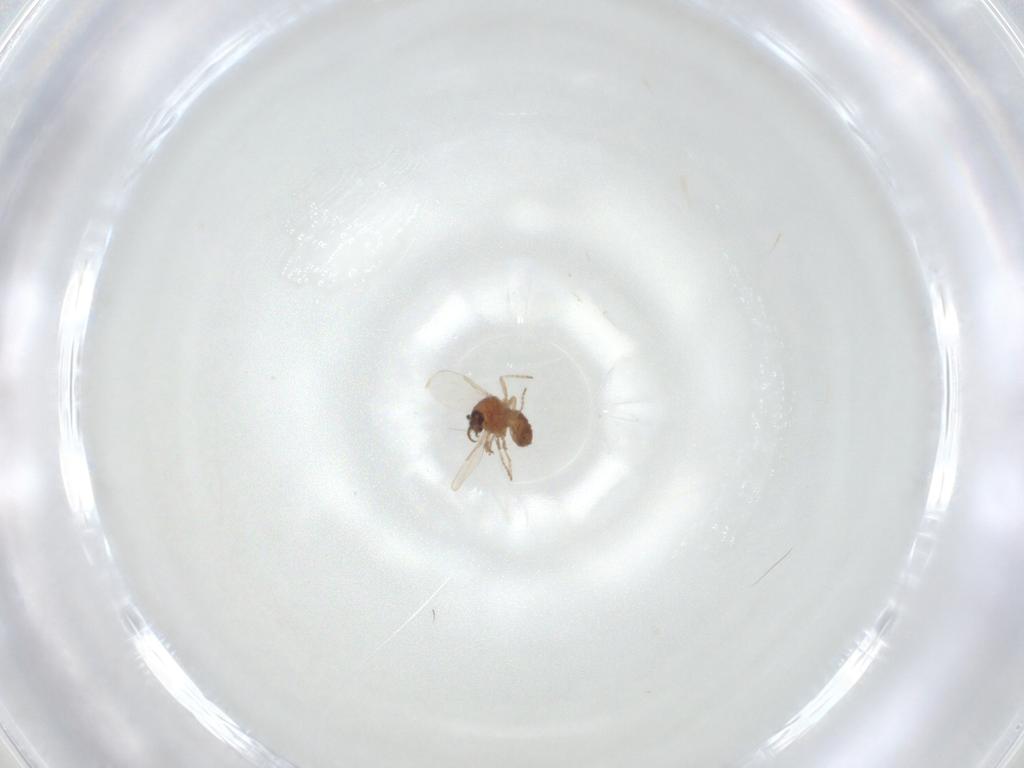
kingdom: Animalia
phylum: Arthropoda
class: Insecta
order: Diptera
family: Ceratopogonidae
